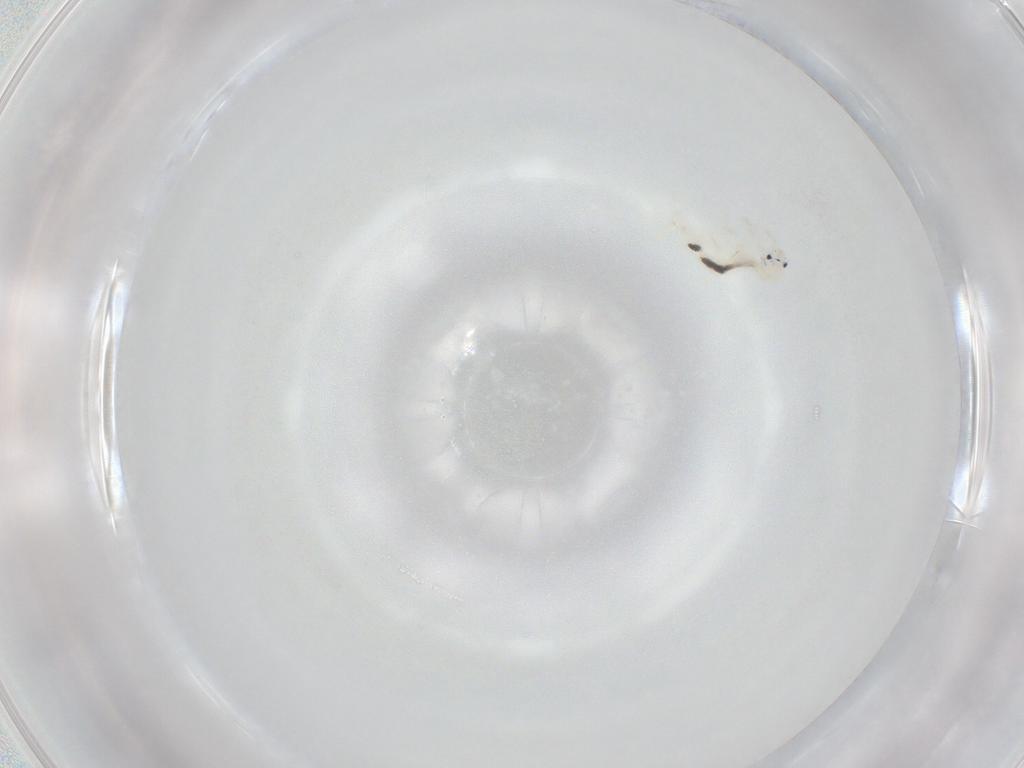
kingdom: Animalia
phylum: Arthropoda
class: Collembola
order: Entomobryomorpha
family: Entomobryidae
